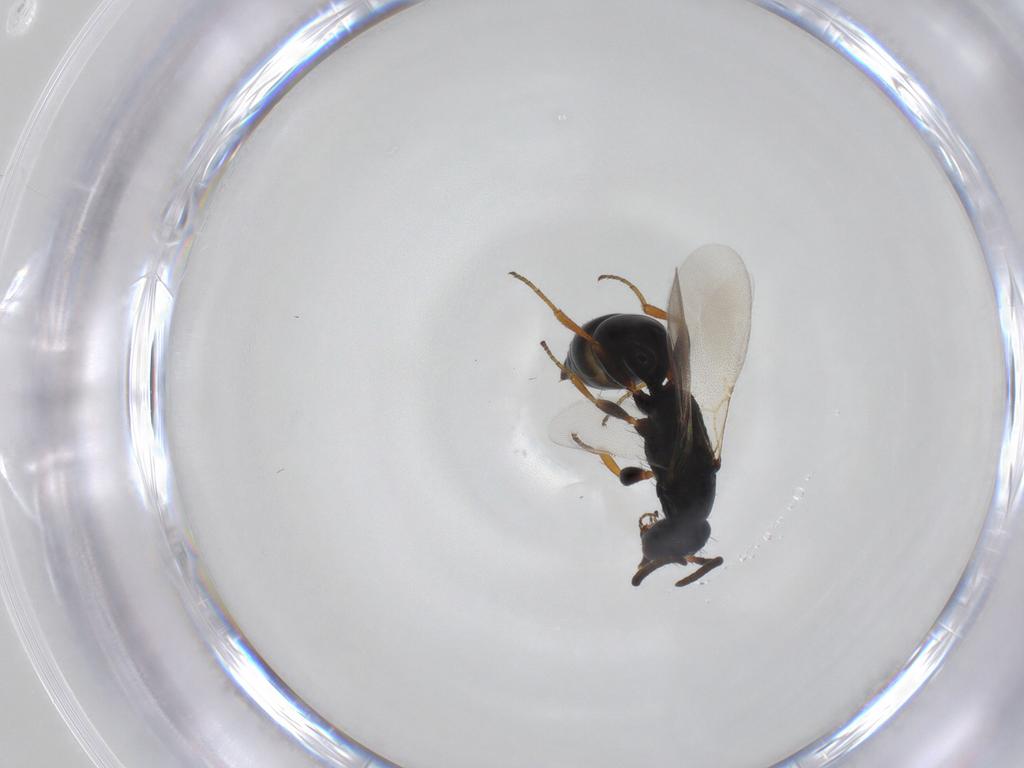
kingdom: Animalia
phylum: Arthropoda
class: Insecta
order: Hymenoptera
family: Bethylidae
